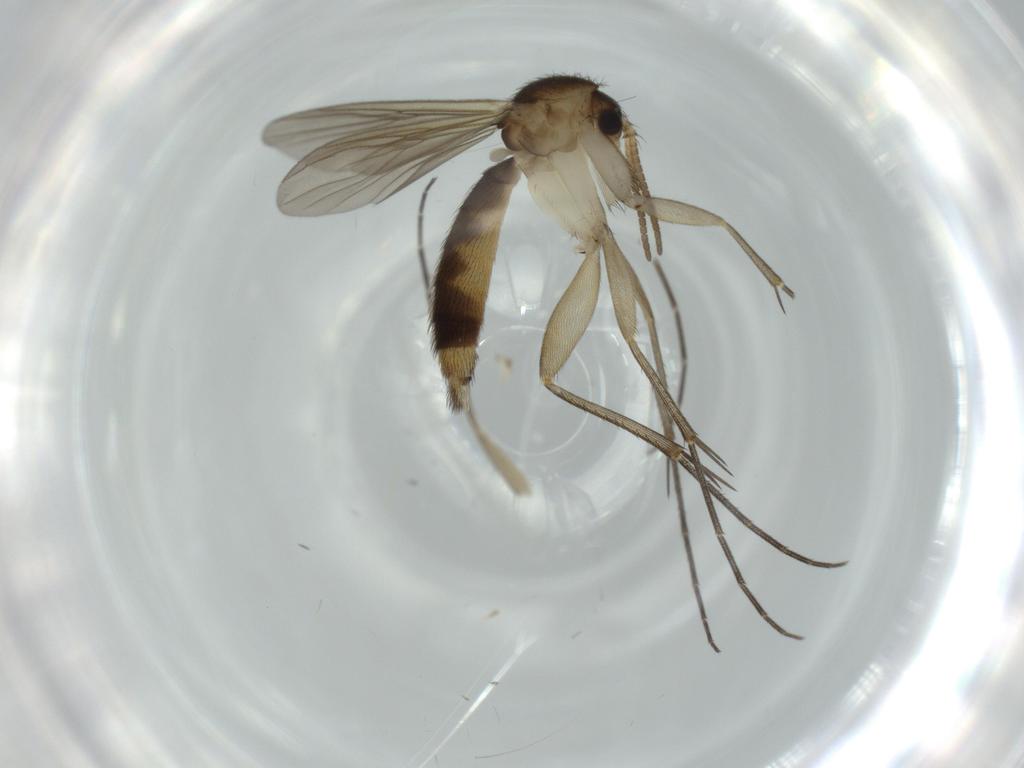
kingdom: Animalia
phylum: Arthropoda
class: Insecta
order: Diptera
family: Mycetophilidae
